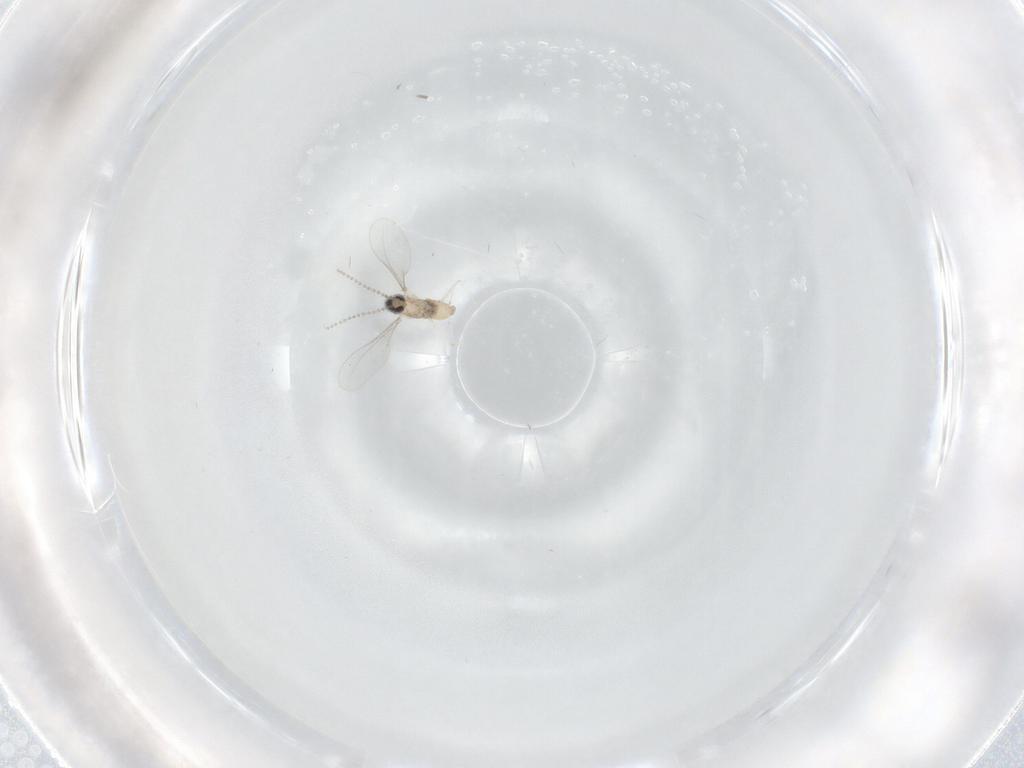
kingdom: Animalia
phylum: Arthropoda
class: Insecta
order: Diptera
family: Cecidomyiidae
